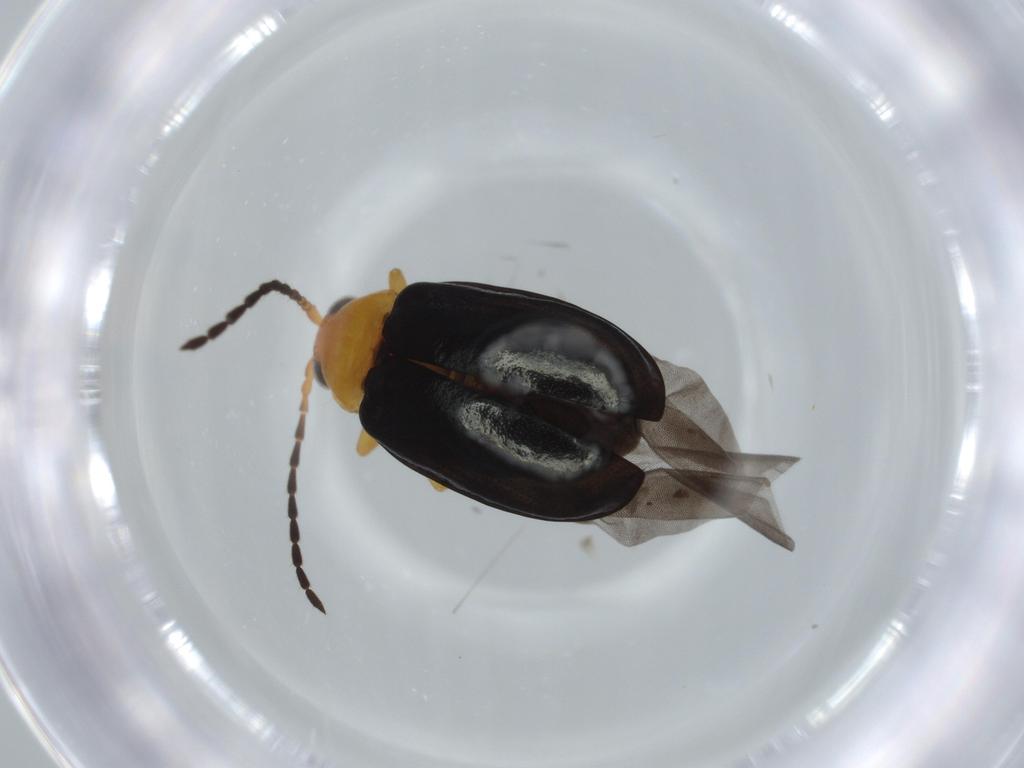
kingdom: Animalia
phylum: Arthropoda
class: Insecta
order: Coleoptera
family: Chrysomelidae
